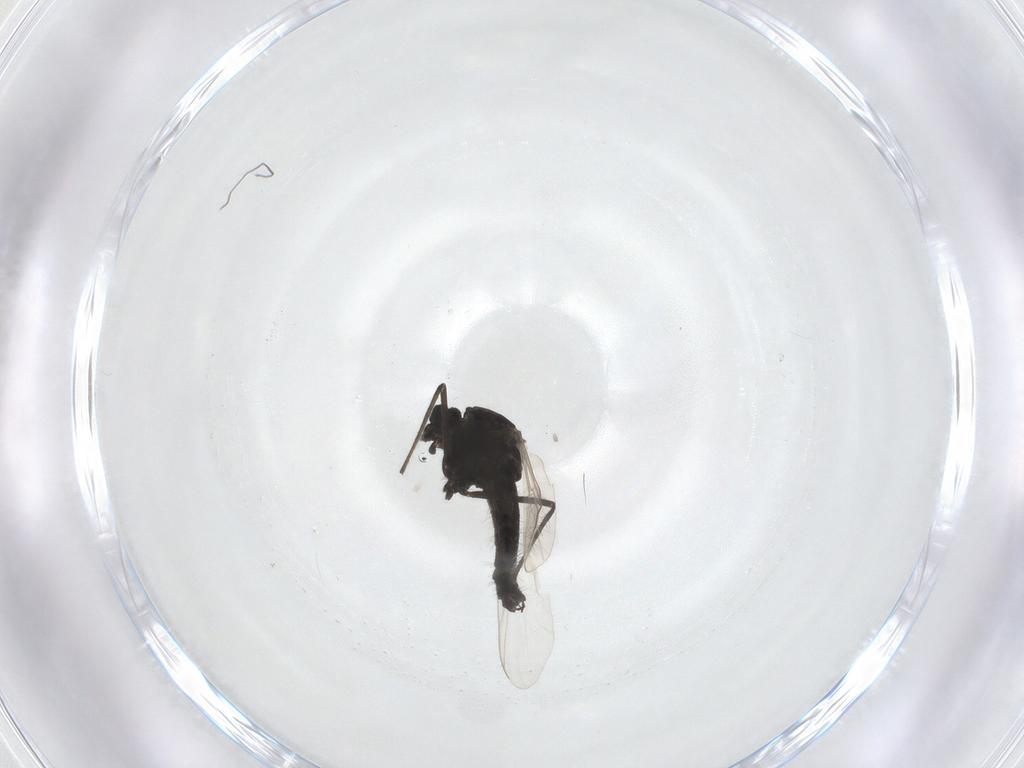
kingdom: Animalia
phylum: Arthropoda
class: Insecta
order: Diptera
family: Chironomidae
